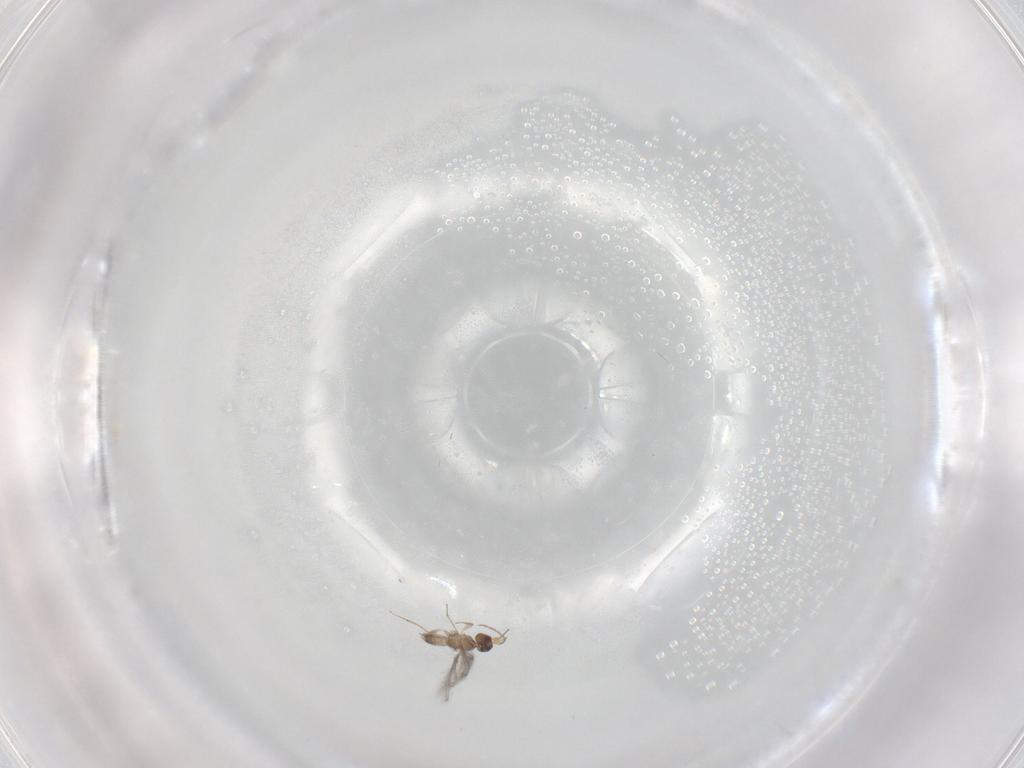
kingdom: Animalia
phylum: Arthropoda
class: Insecta
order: Hymenoptera
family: Mymaridae
